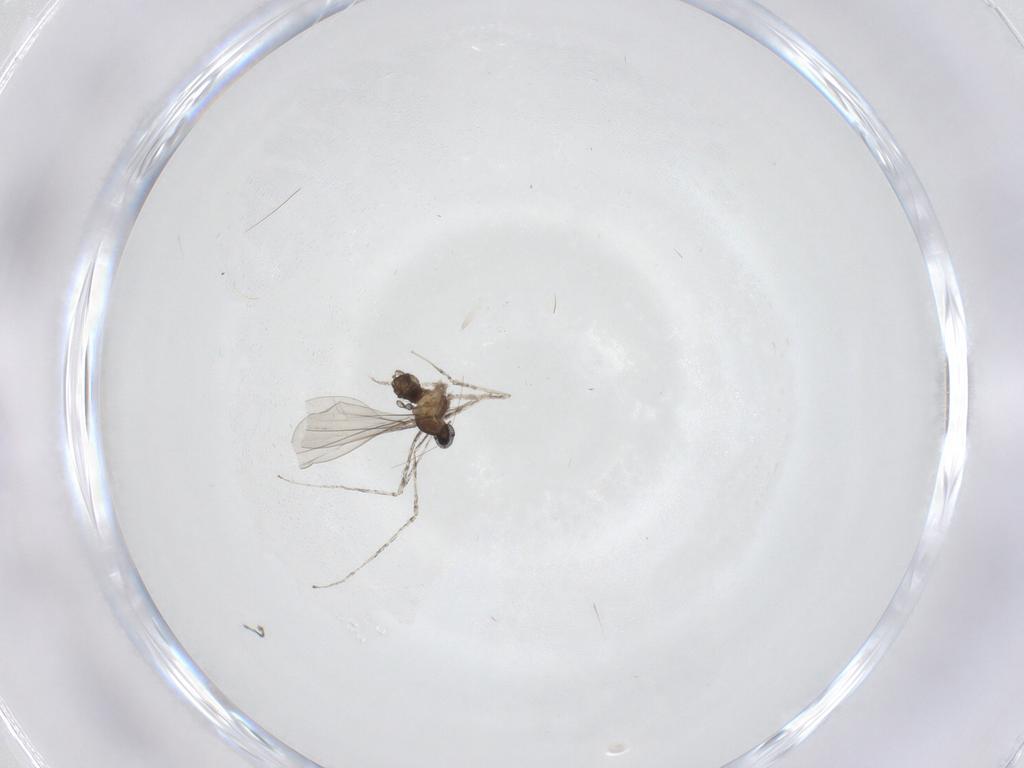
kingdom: Animalia
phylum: Arthropoda
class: Insecta
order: Diptera
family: Cecidomyiidae
